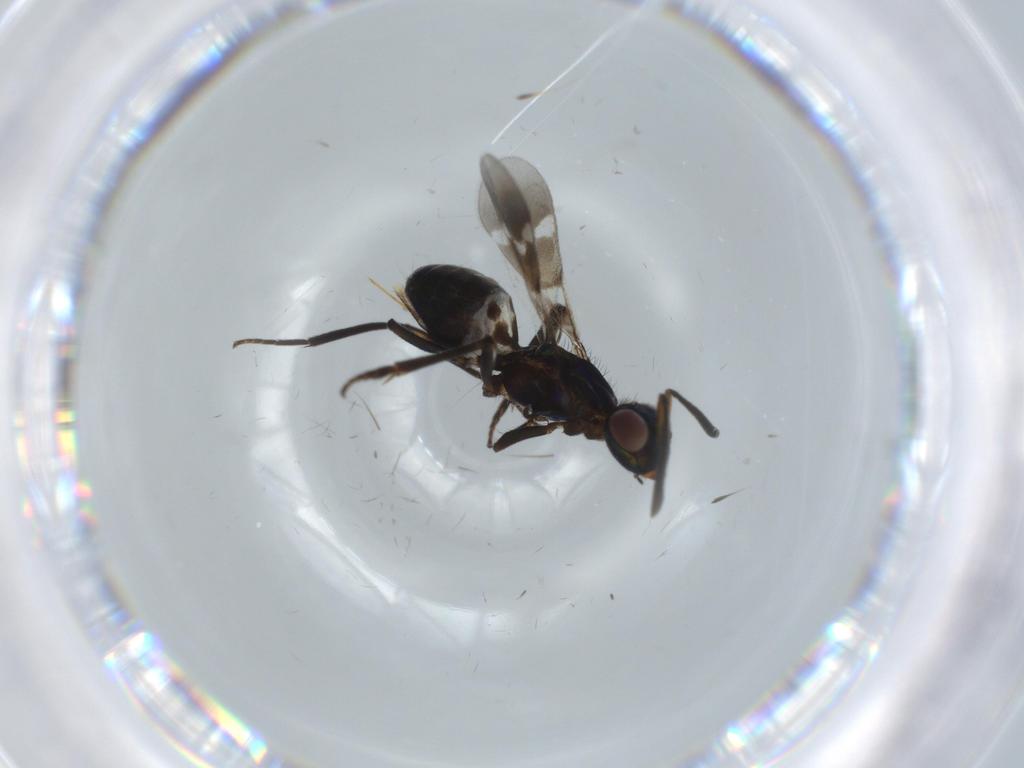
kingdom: Animalia
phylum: Arthropoda
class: Insecta
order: Hymenoptera
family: Eupelmidae
